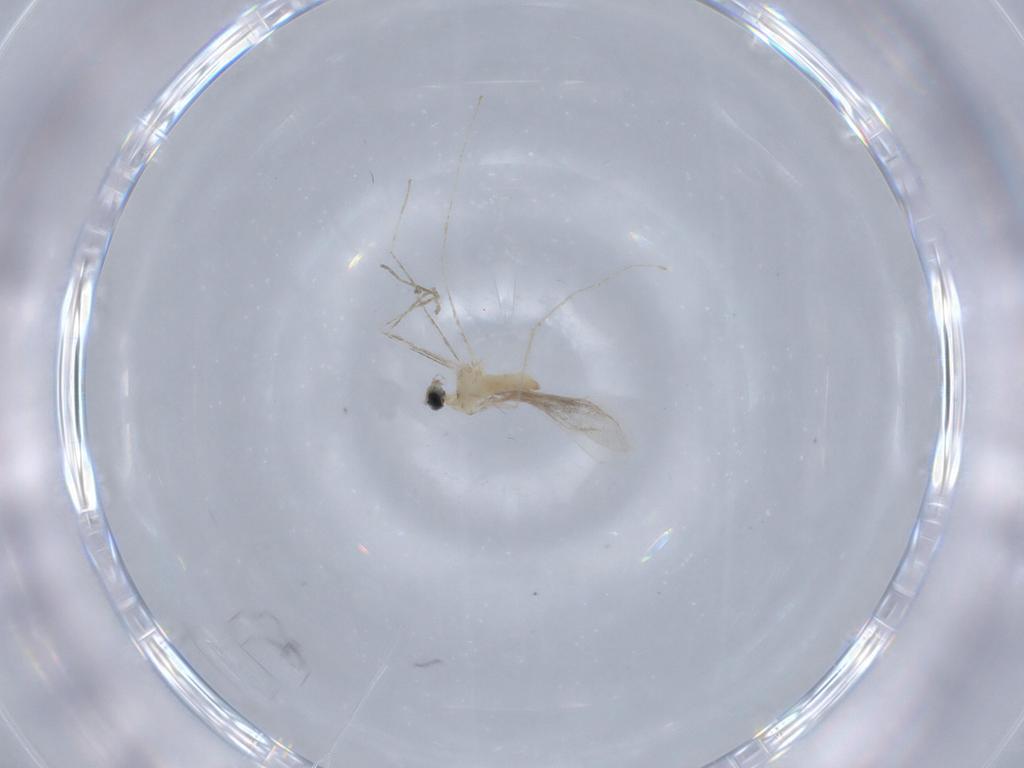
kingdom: Animalia
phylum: Arthropoda
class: Insecta
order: Diptera
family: Cecidomyiidae
